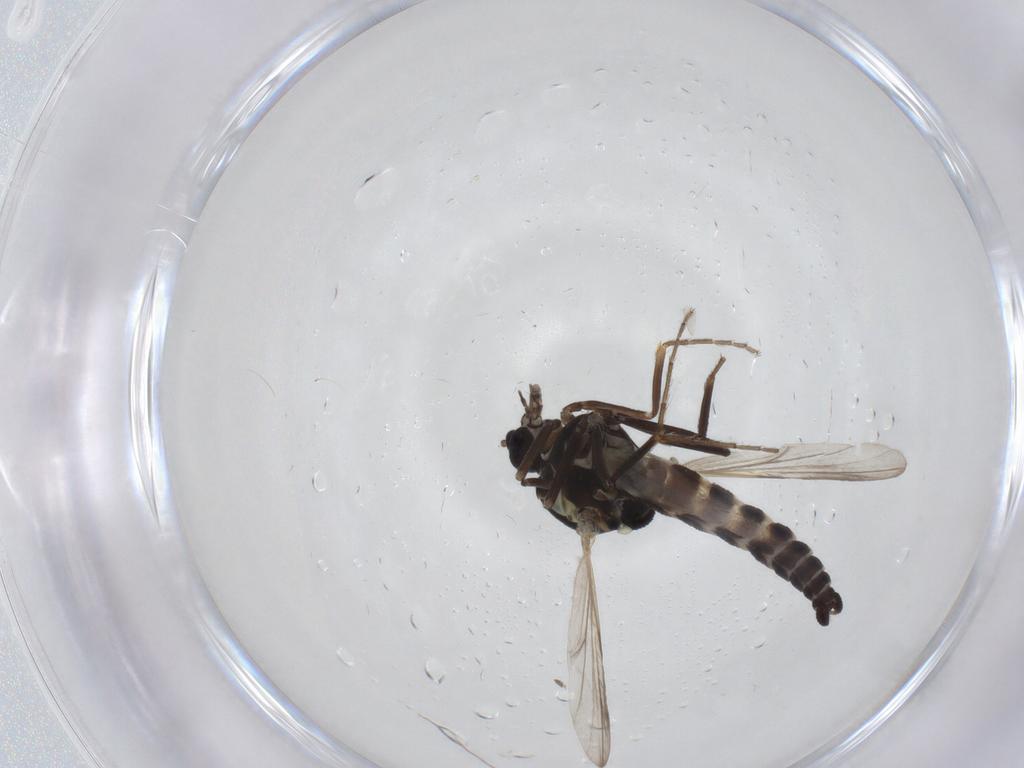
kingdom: Animalia
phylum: Arthropoda
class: Insecta
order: Diptera
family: Ceratopogonidae
